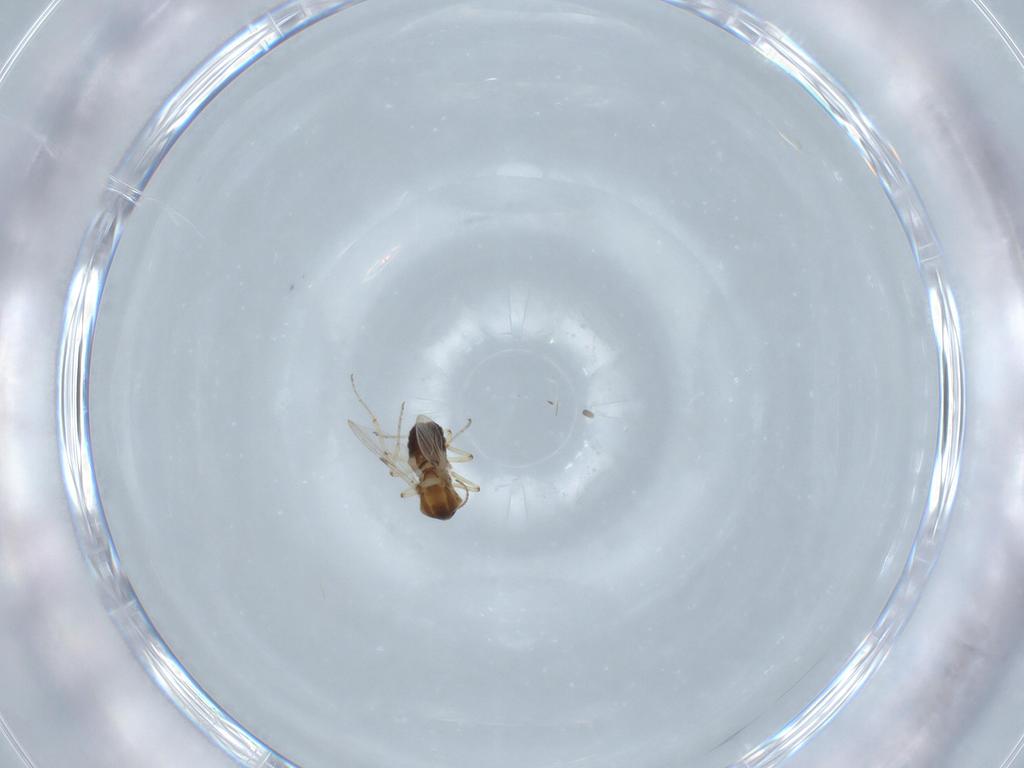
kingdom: Animalia
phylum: Arthropoda
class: Insecta
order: Diptera
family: Ceratopogonidae
